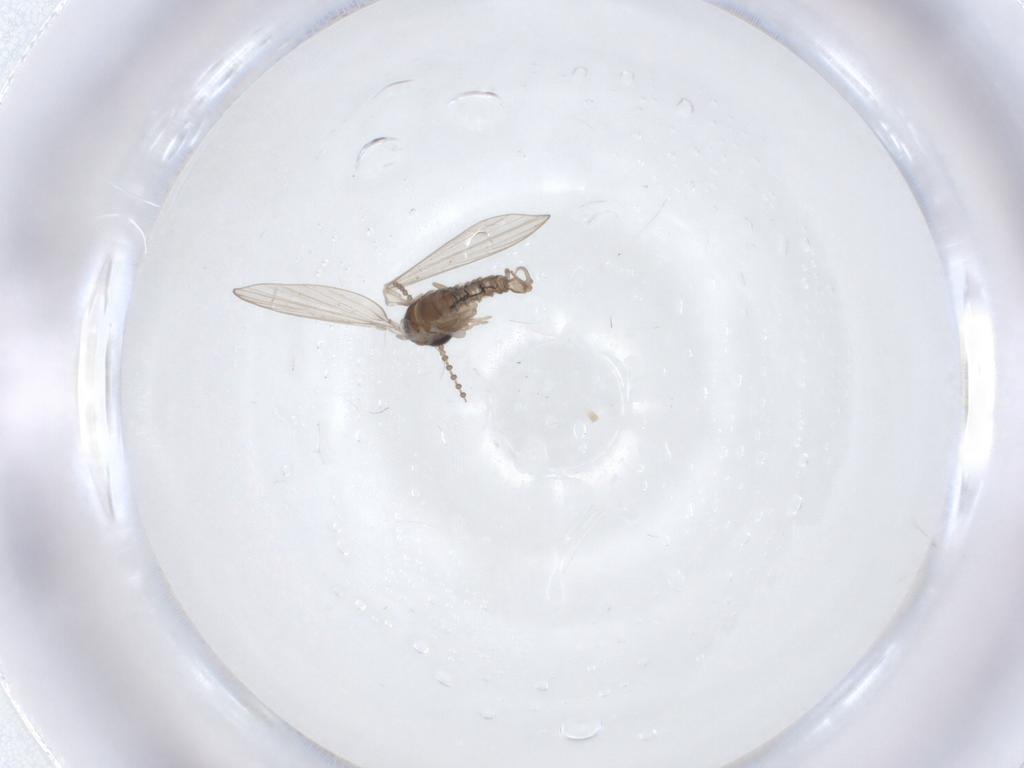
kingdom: Animalia
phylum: Arthropoda
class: Insecta
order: Diptera
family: Psychodidae
